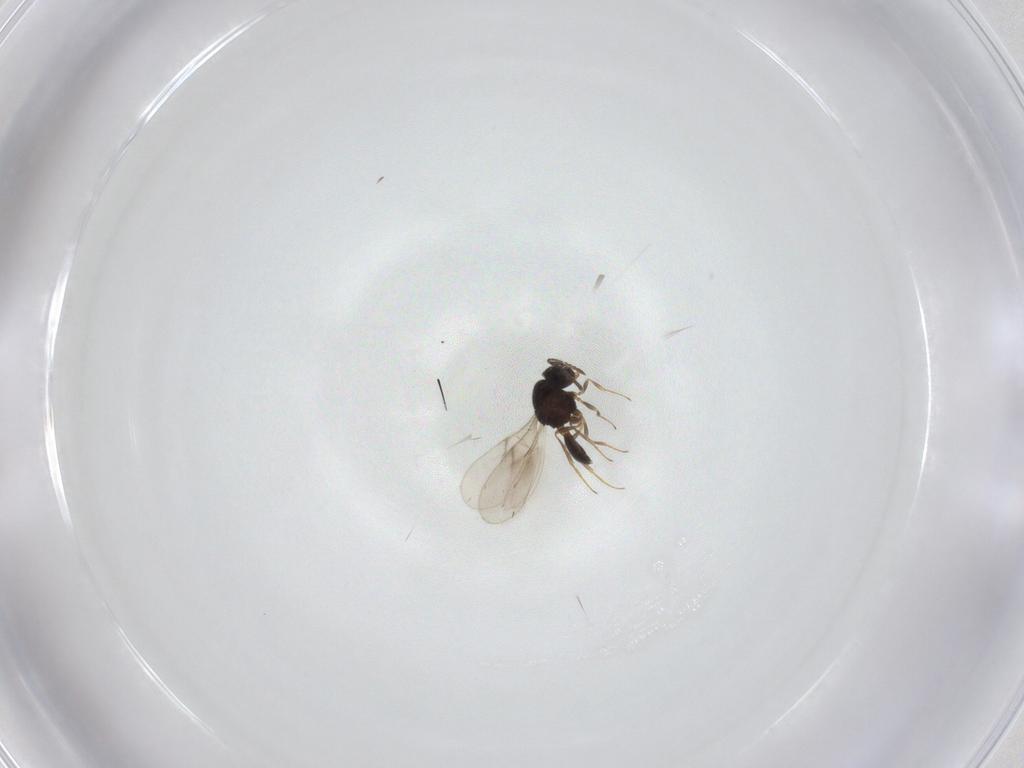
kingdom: Animalia
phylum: Arthropoda
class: Insecta
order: Hymenoptera
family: Scelionidae
